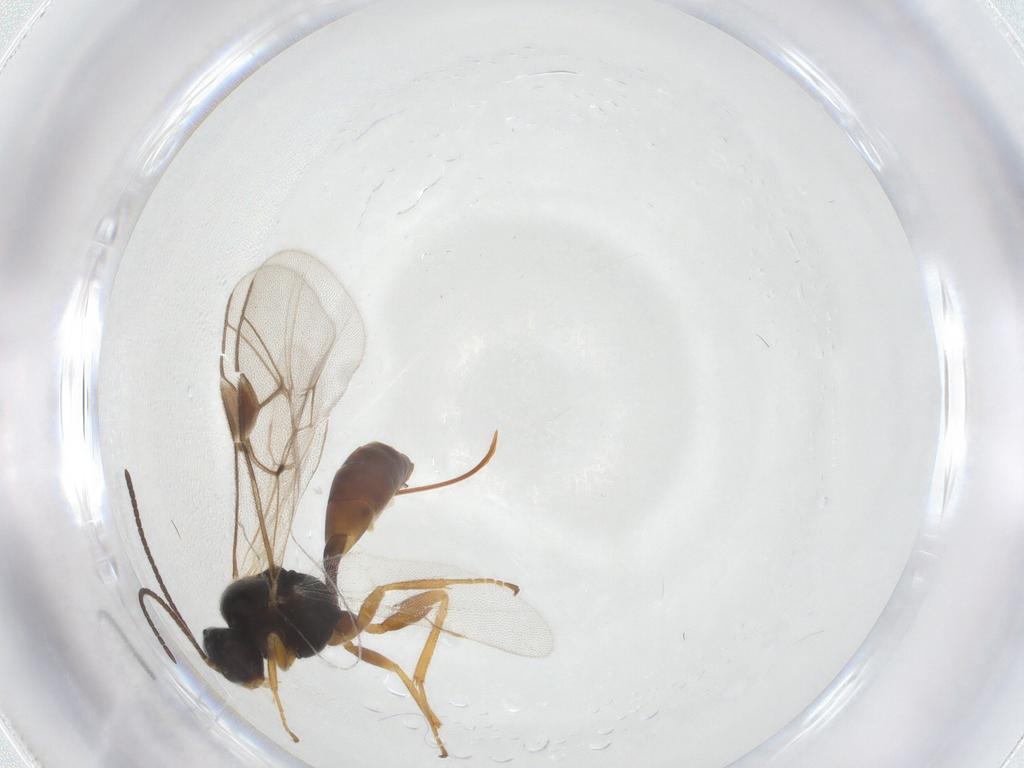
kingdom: Animalia
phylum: Arthropoda
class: Insecta
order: Hymenoptera
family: Ichneumonidae
